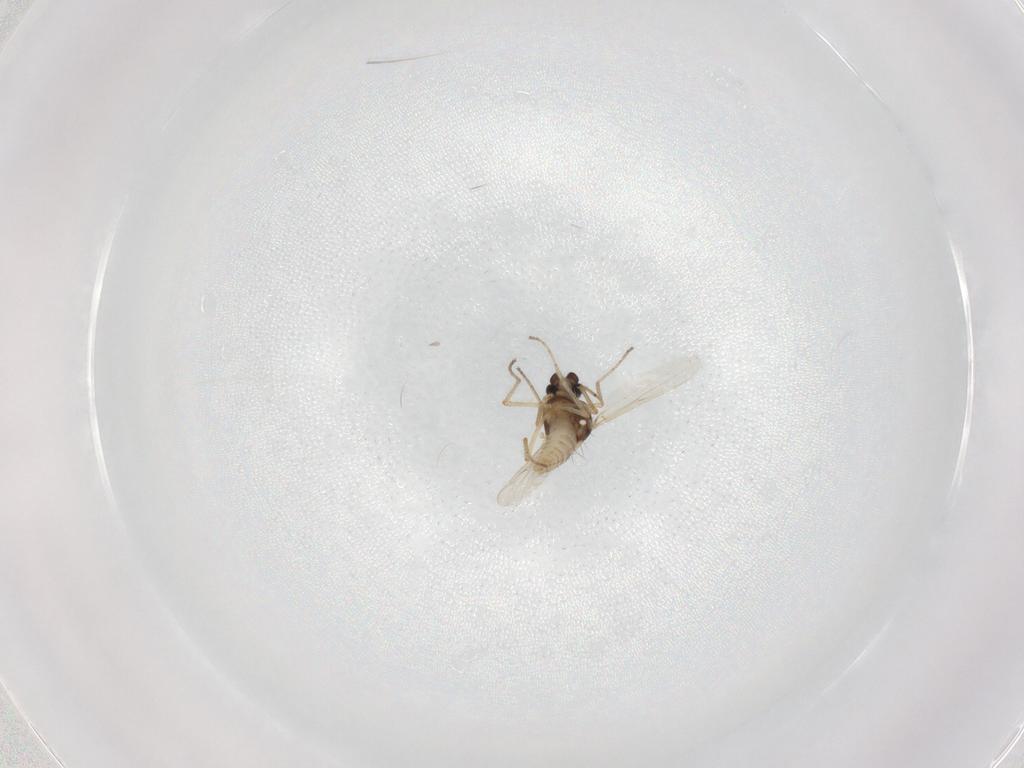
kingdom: Animalia
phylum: Arthropoda
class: Insecta
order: Diptera
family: Ceratopogonidae
